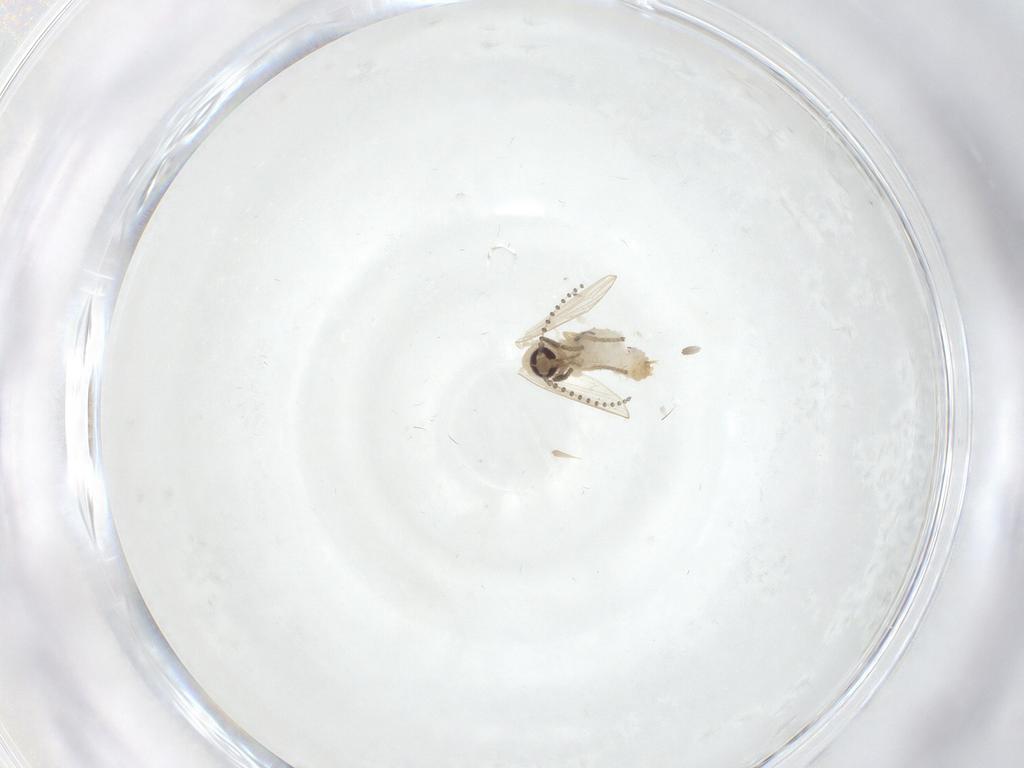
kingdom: Animalia
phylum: Arthropoda
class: Insecta
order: Diptera
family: Psychodidae
